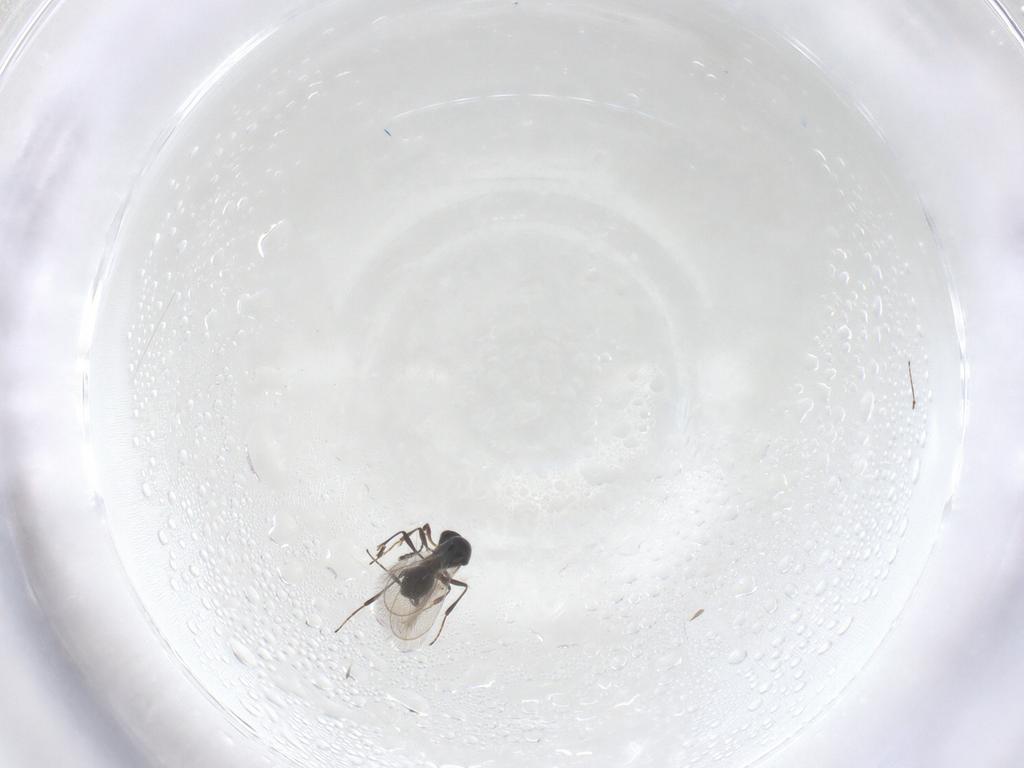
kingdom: Animalia
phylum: Arthropoda
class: Insecta
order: Hymenoptera
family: Platygastridae
